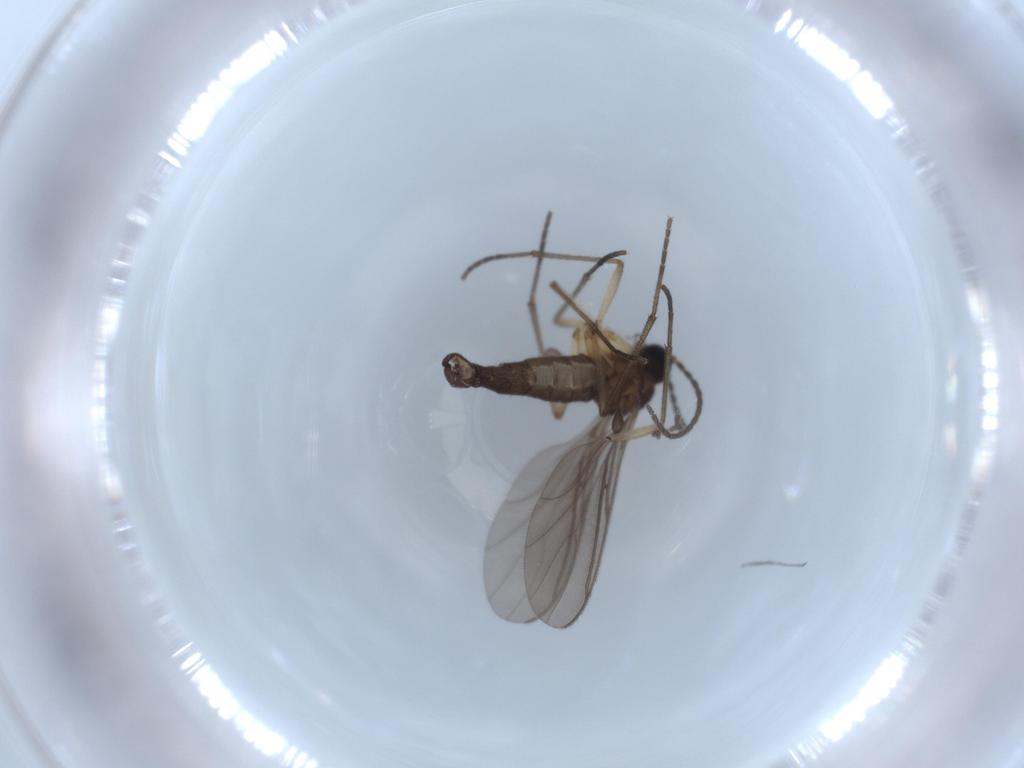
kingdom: Animalia
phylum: Arthropoda
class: Insecta
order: Diptera
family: Sciaridae
